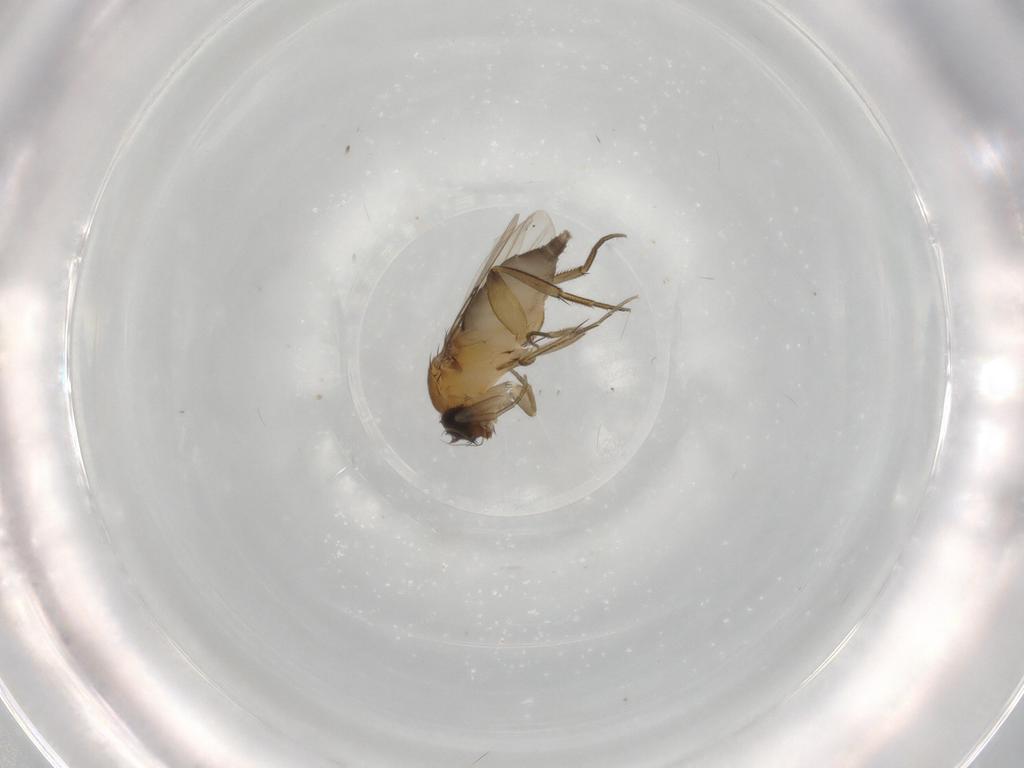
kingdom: Animalia
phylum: Arthropoda
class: Insecta
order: Diptera
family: Phoridae
